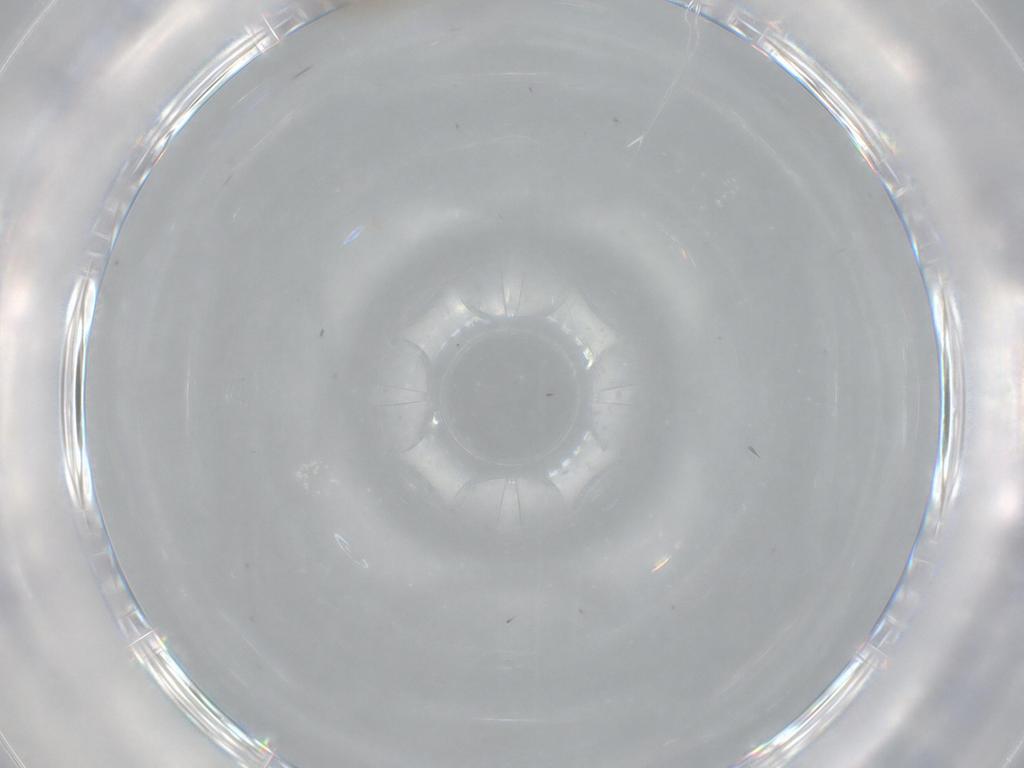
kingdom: Animalia
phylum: Arthropoda
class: Insecta
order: Diptera
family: Cecidomyiidae
